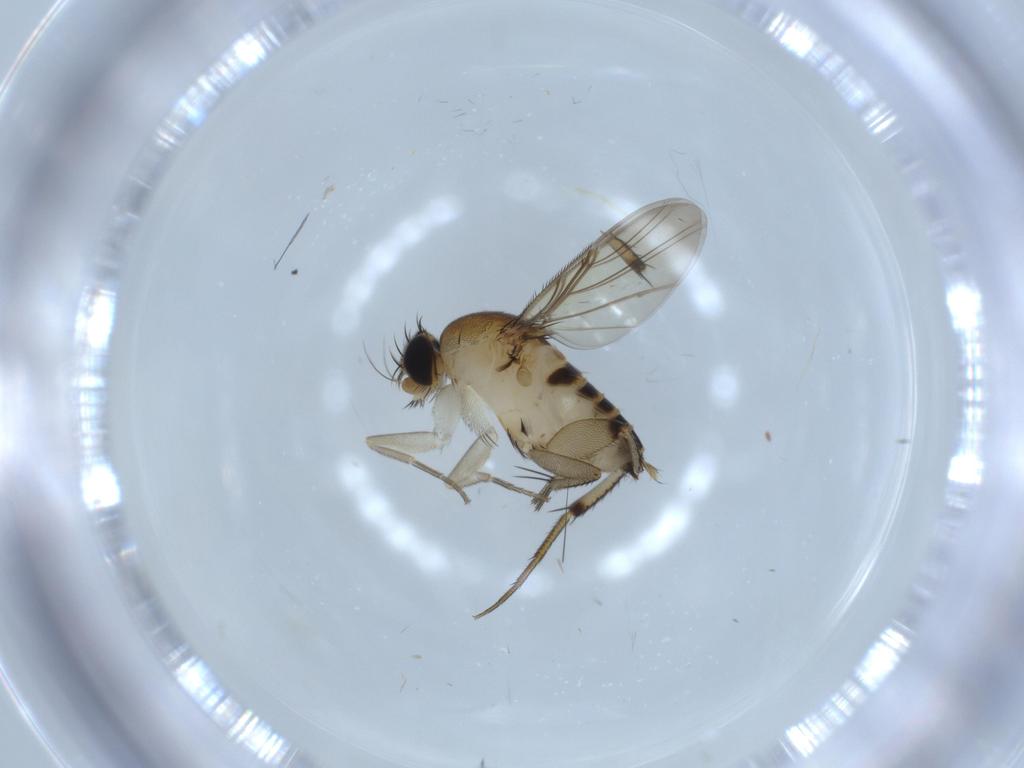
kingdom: Animalia
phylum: Arthropoda
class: Insecta
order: Diptera
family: Phoridae
